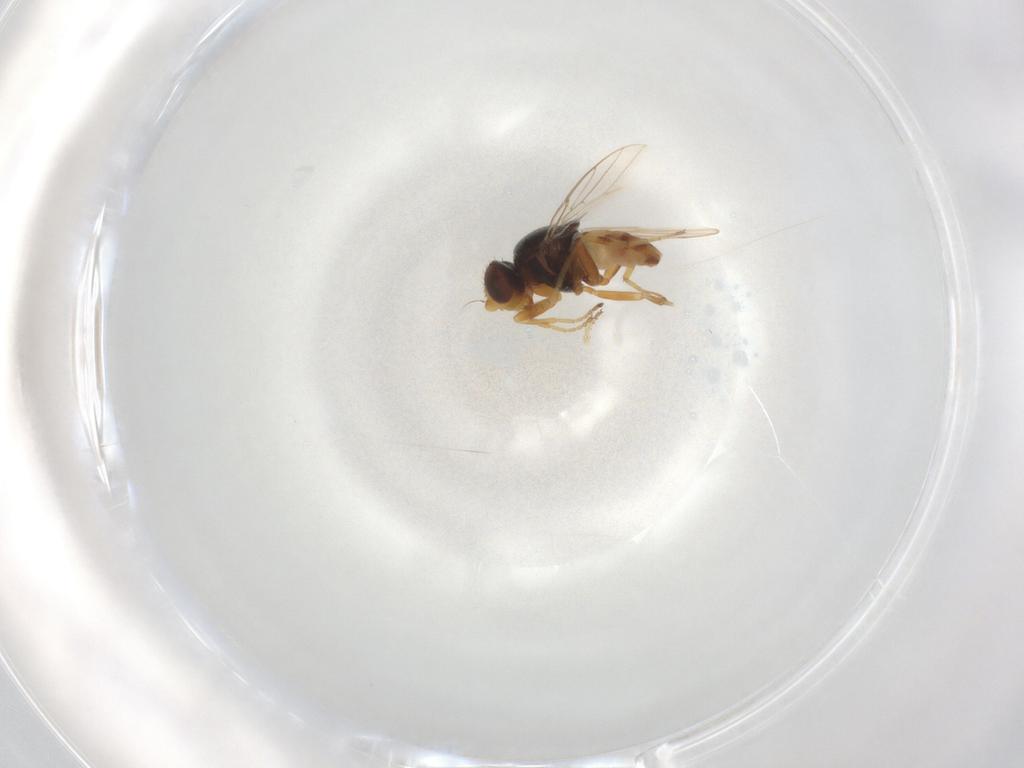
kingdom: Animalia
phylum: Arthropoda
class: Insecta
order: Diptera
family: Chloropidae
